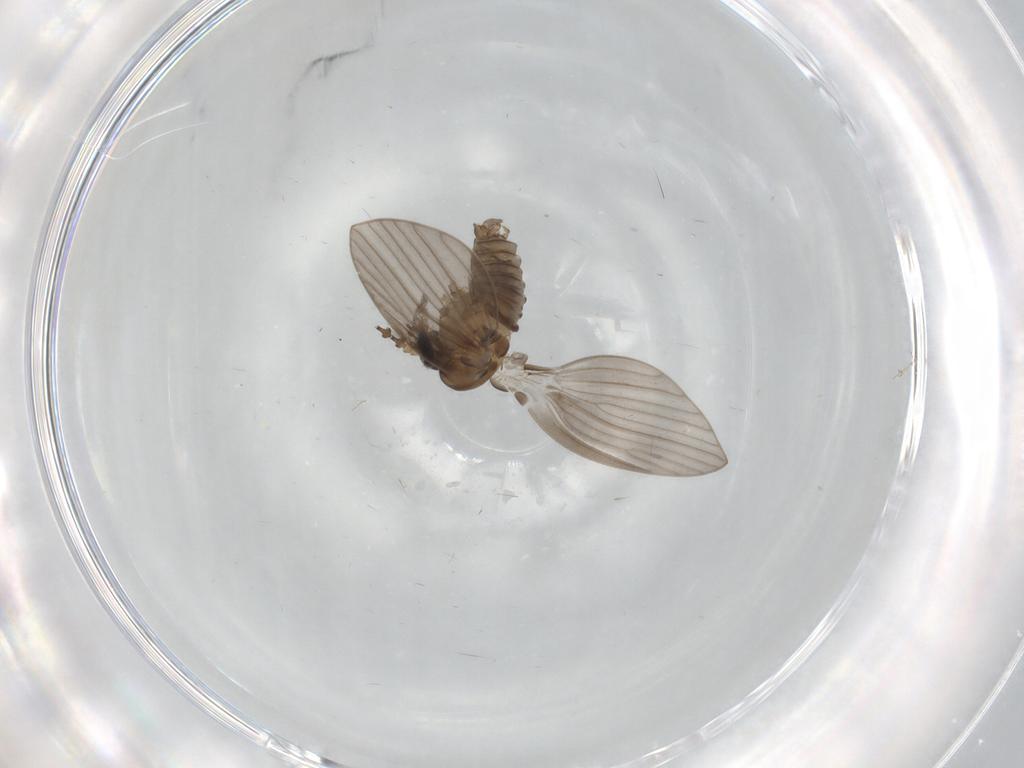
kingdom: Animalia
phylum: Arthropoda
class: Insecta
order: Diptera
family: Psychodidae
